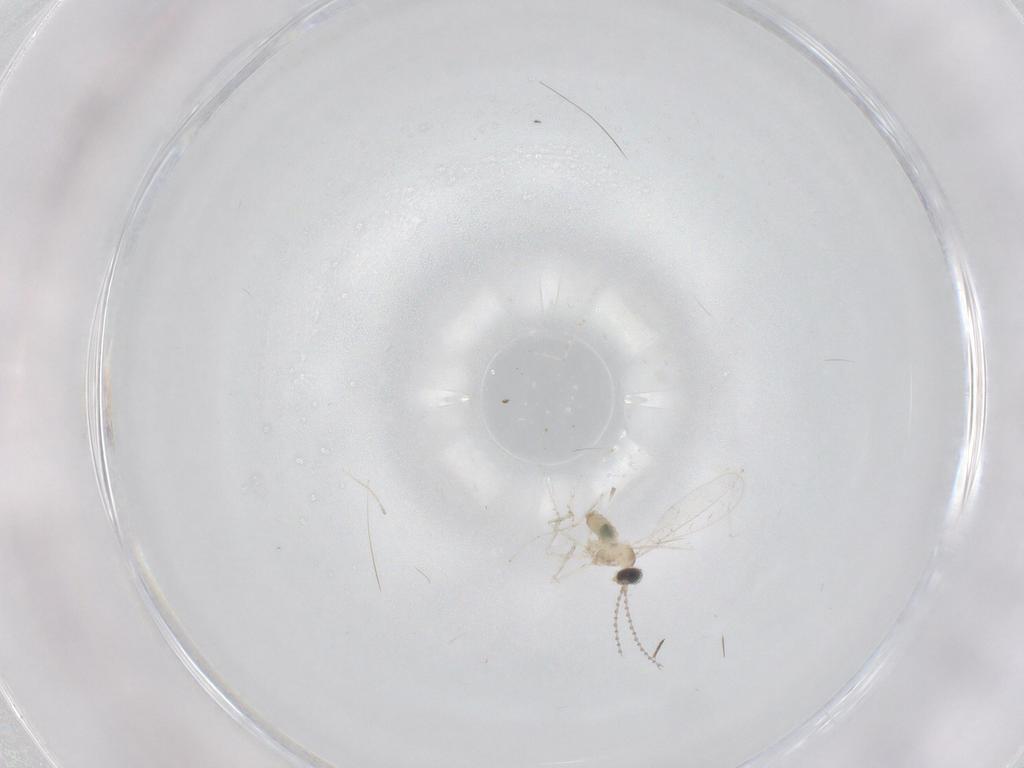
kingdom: Animalia
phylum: Arthropoda
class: Insecta
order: Diptera
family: Cecidomyiidae
